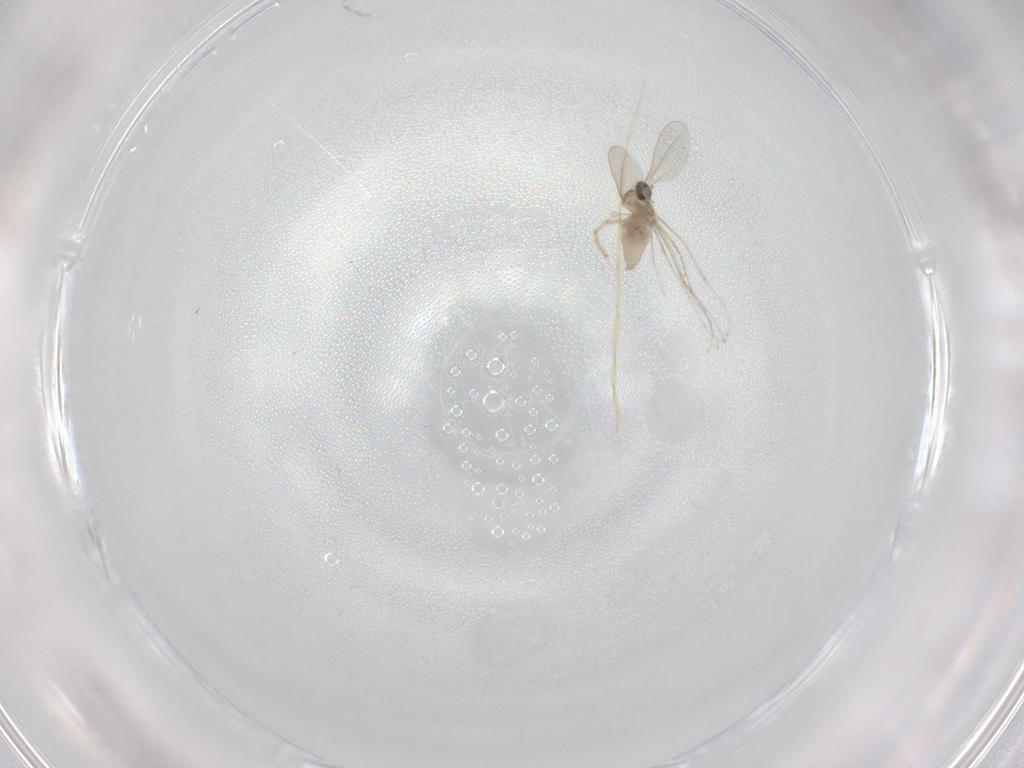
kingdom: Animalia
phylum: Arthropoda
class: Insecta
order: Diptera
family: Cecidomyiidae
